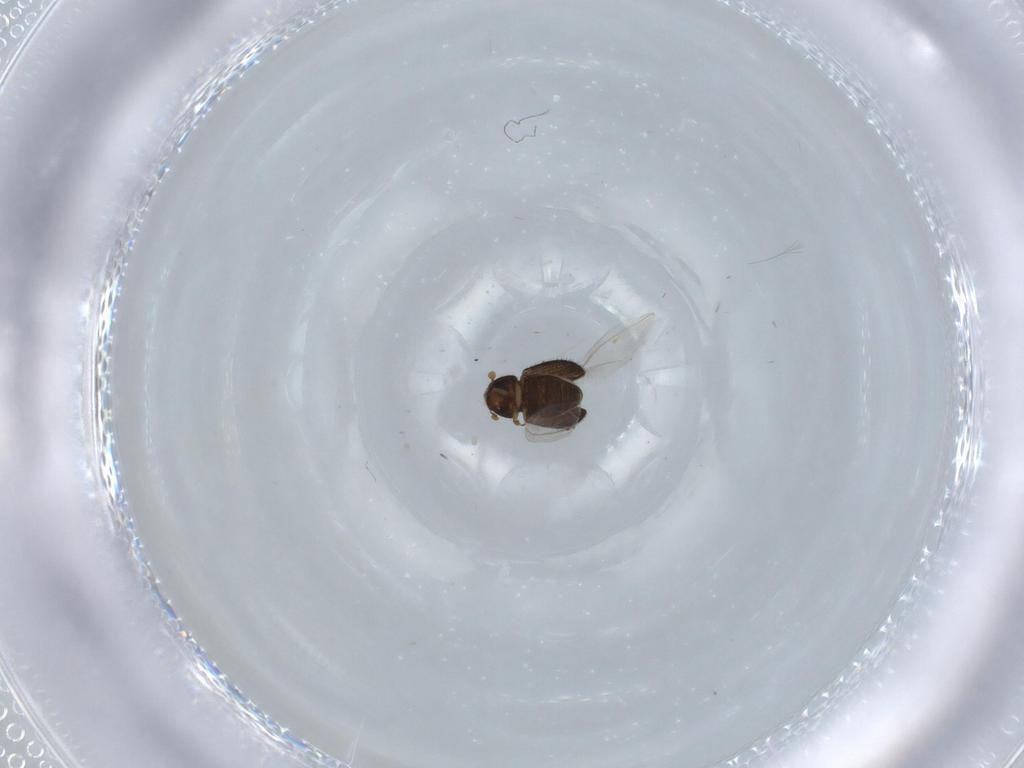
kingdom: Animalia
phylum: Arthropoda
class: Insecta
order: Coleoptera
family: Curculionidae
